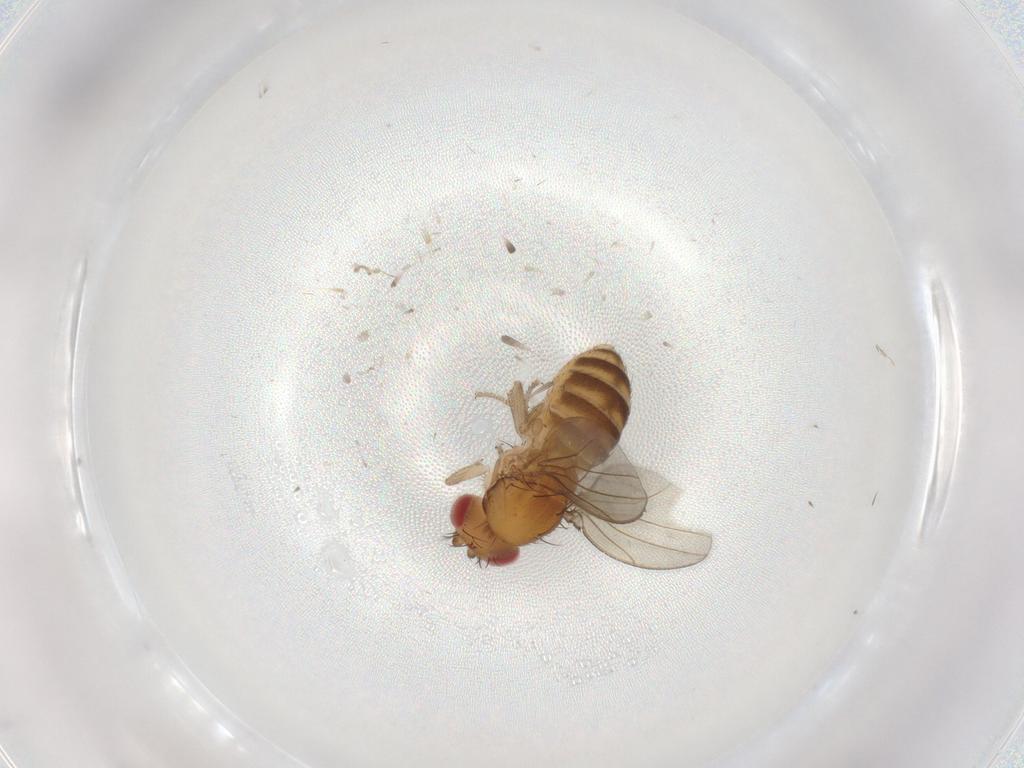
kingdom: Animalia
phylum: Arthropoda
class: Insecta
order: Diptera
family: Drosophilidae
